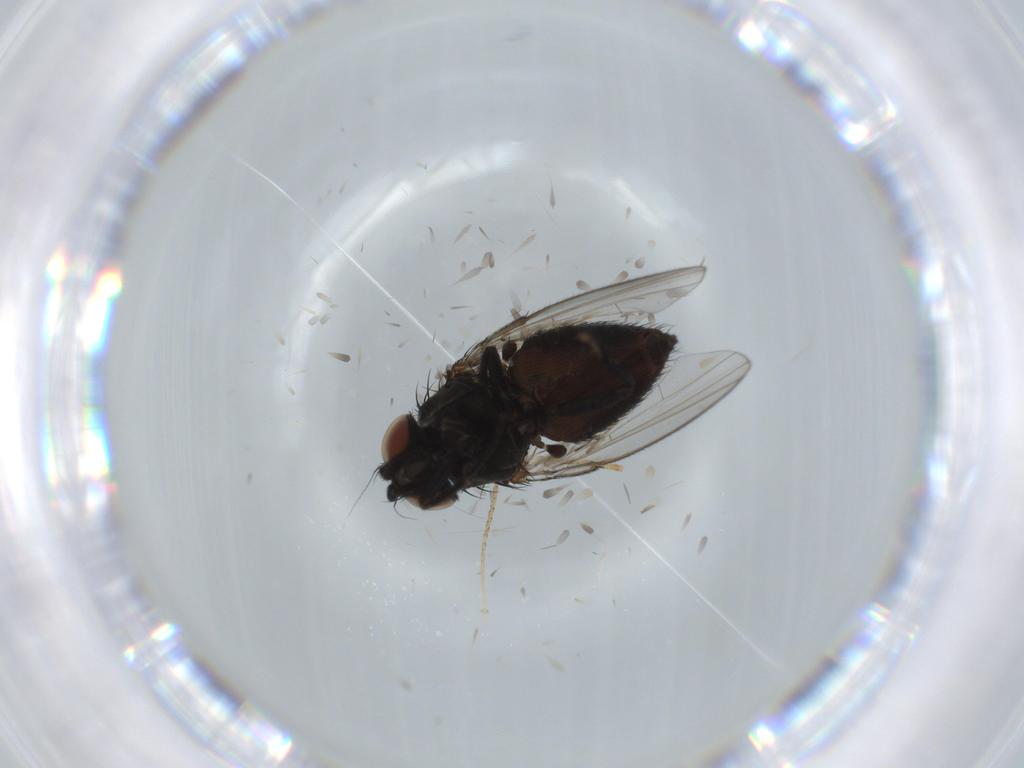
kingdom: Animalia
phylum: Arthropoda
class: Insecta
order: Diptera
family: Milichiidae
